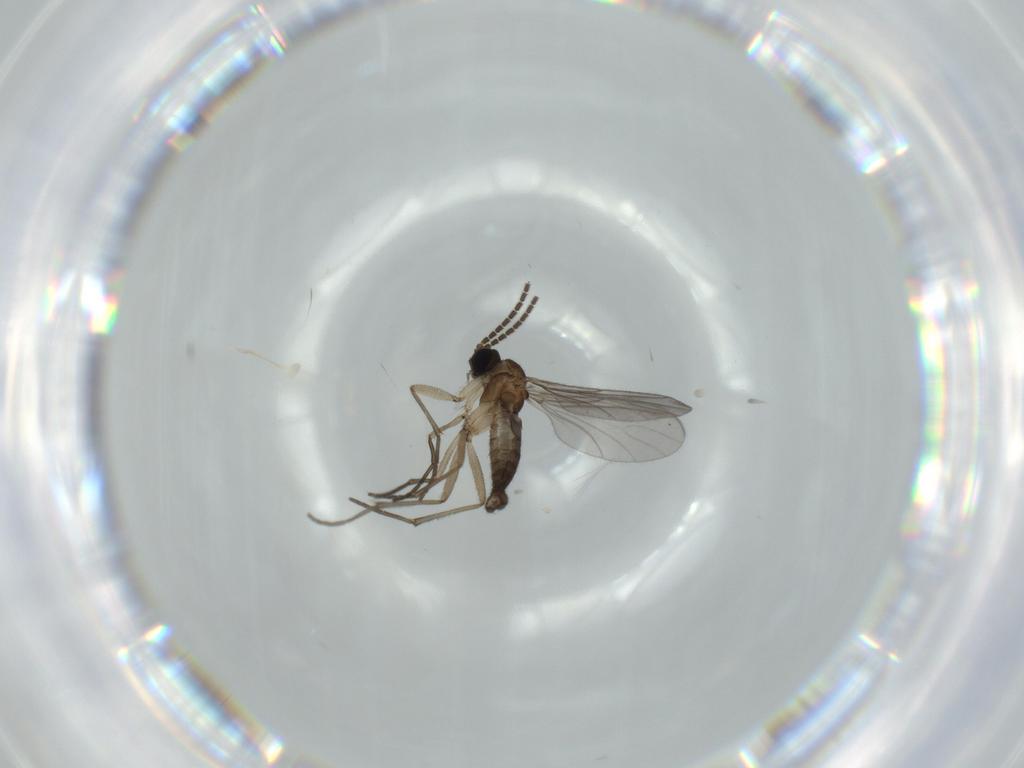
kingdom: Animalia
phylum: Arthropoda
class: Insecta
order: Diptera
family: Sciaridae
